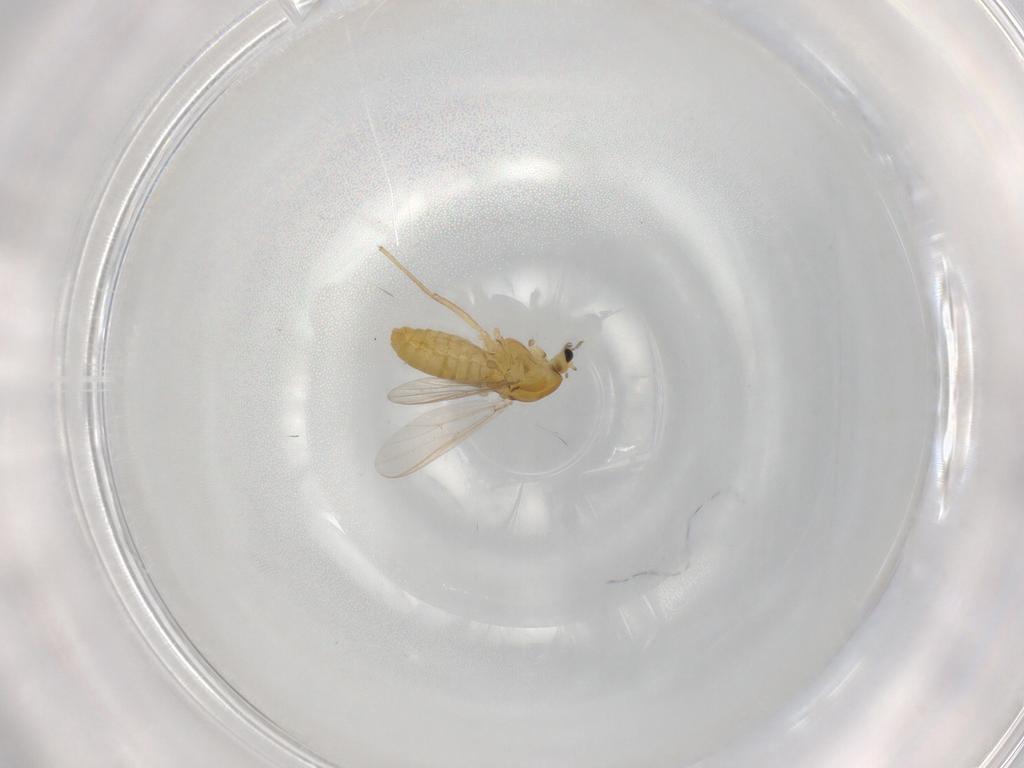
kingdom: Animalia
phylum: Arthropoda
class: Insecta
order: Diptera
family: Chironomidae
